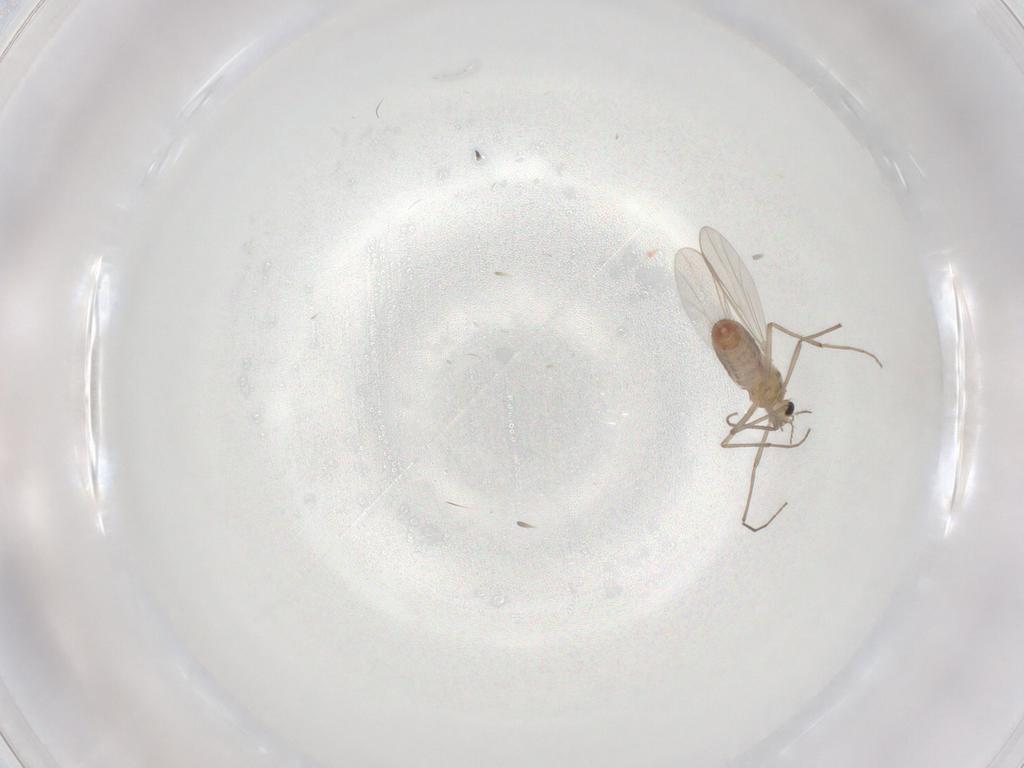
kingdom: Animalia
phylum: Arthropoda
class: Insecta
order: Diptera
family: Chironomidae
